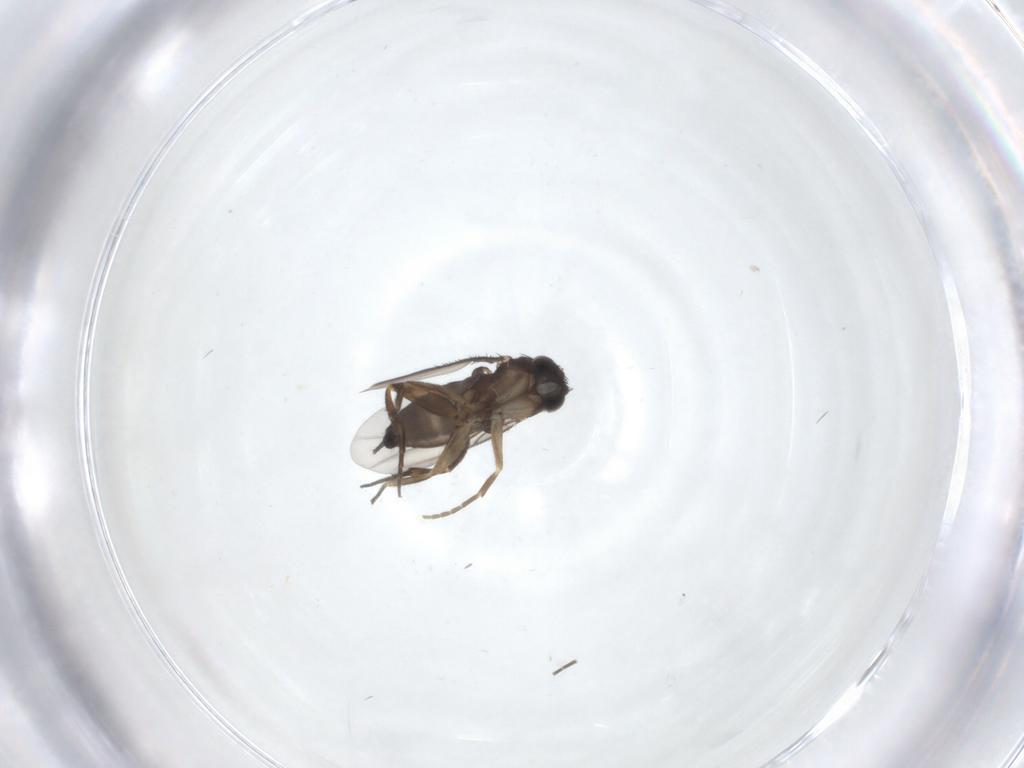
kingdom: Animalia
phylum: Arthropoda
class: Insecta
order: Diptera
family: Phoridae
